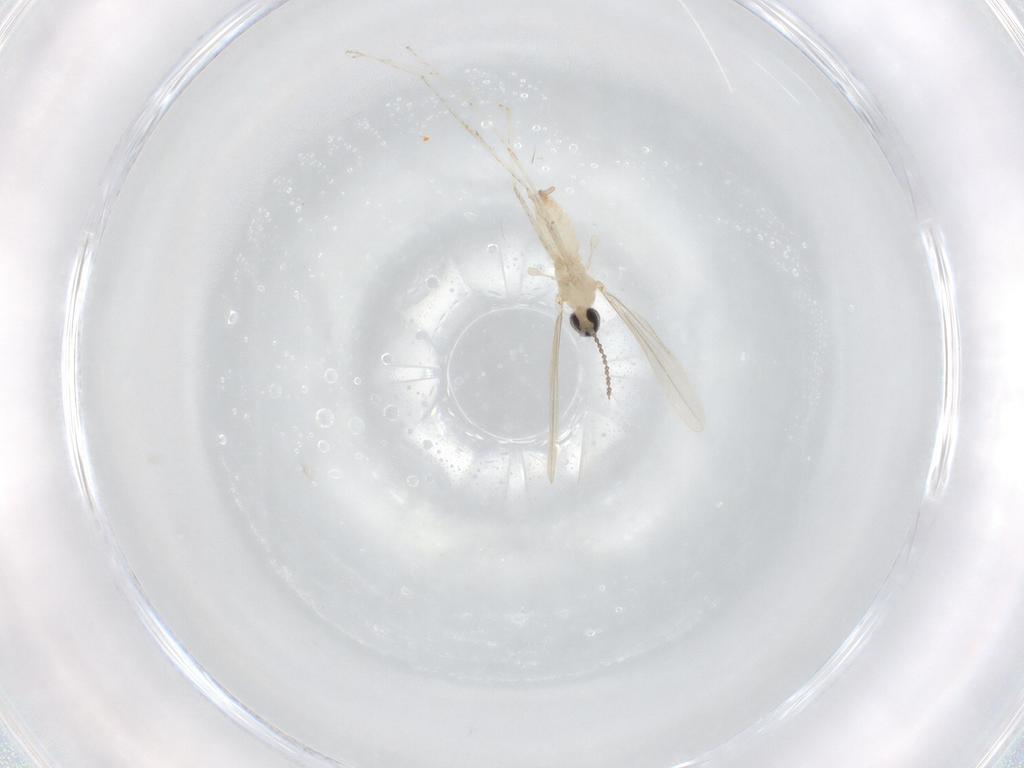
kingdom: Animalia
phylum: Arthropoda
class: Insecta
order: Diptera
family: Cecidomyiidae
